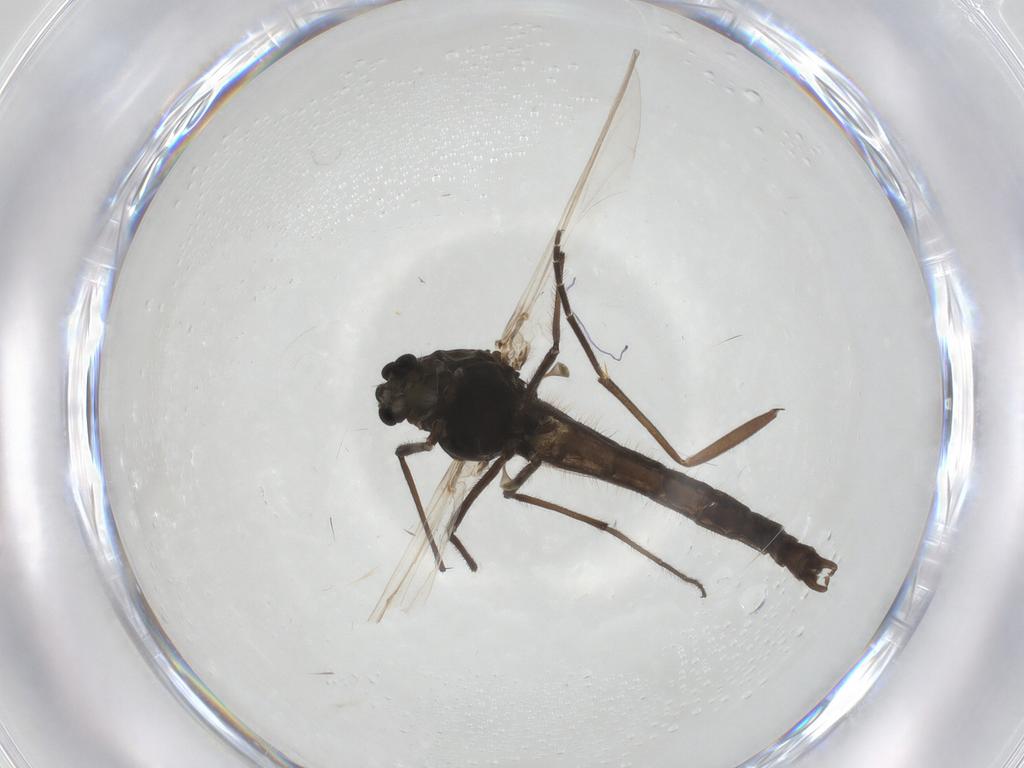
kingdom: Animalia
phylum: Arthropoda
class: Insecta
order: Diptera
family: Chironomidae
